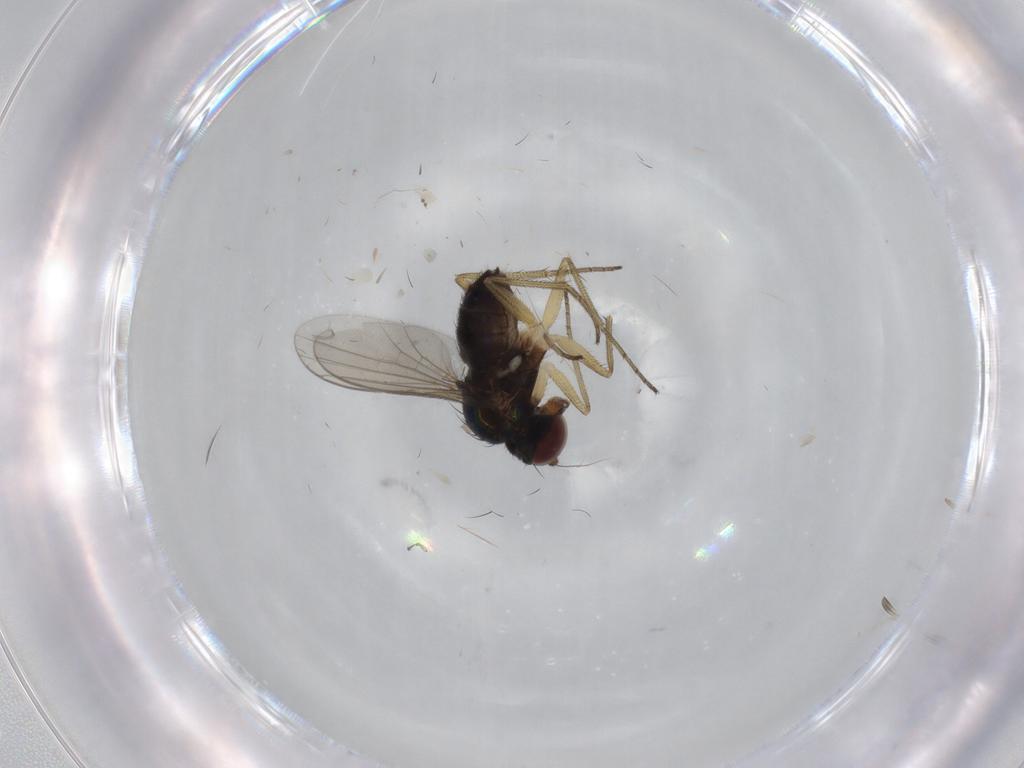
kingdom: Animalia
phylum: Arthropoda
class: Insecta
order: Diptera
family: Dolichopodidae
